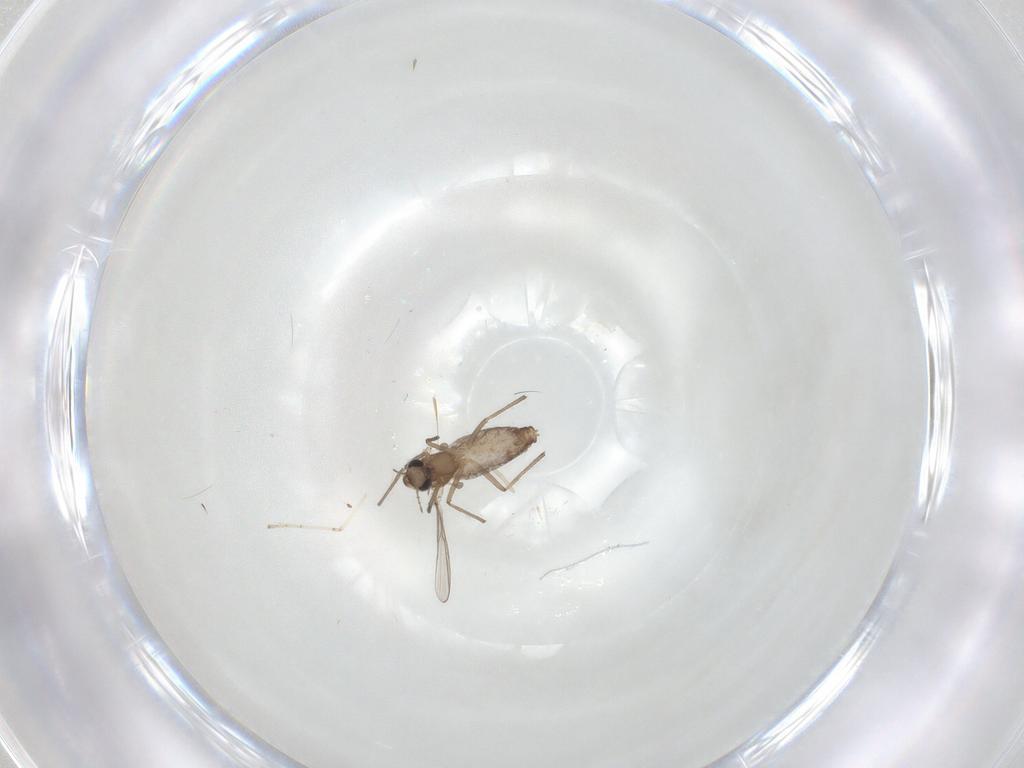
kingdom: Animalia
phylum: Arthropoda
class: Insecta
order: Diptera
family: Chironomidae
